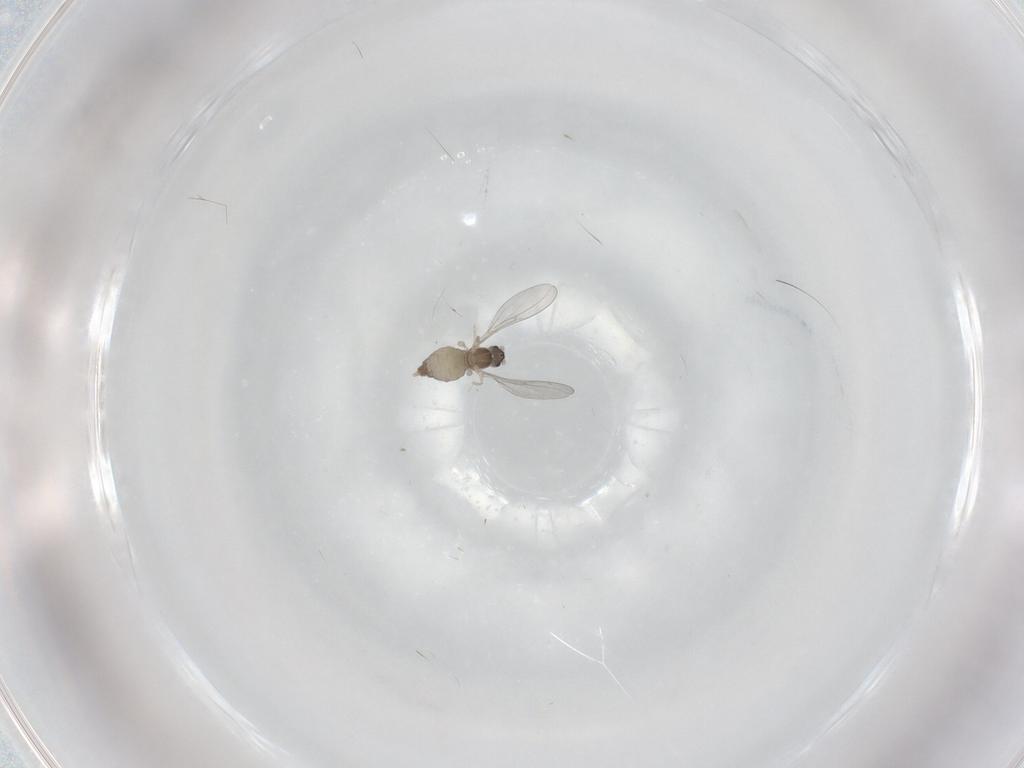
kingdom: Animalia
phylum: Arthropoda
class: Insecta
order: Diptera
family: Cecidomyiidae
